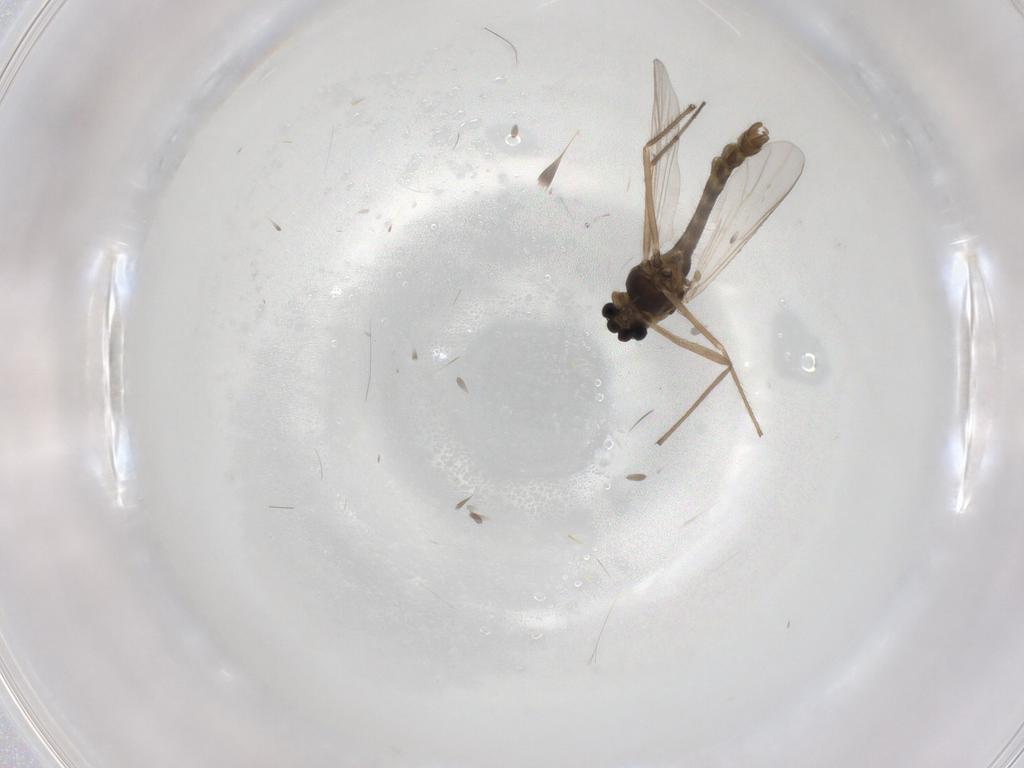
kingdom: Animalia
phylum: Arthropoda
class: Insecta
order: Diptera
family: Chironomidae
